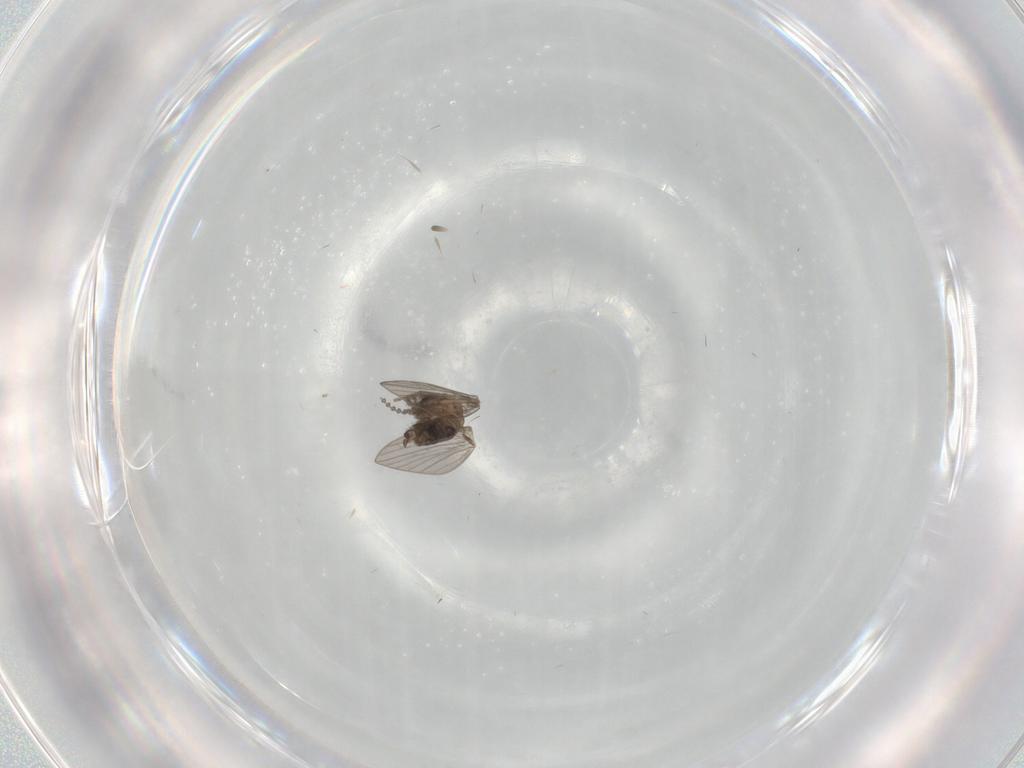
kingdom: Animalia
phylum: Arthropoda
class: Insecta
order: Diptera
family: Psychodidae
